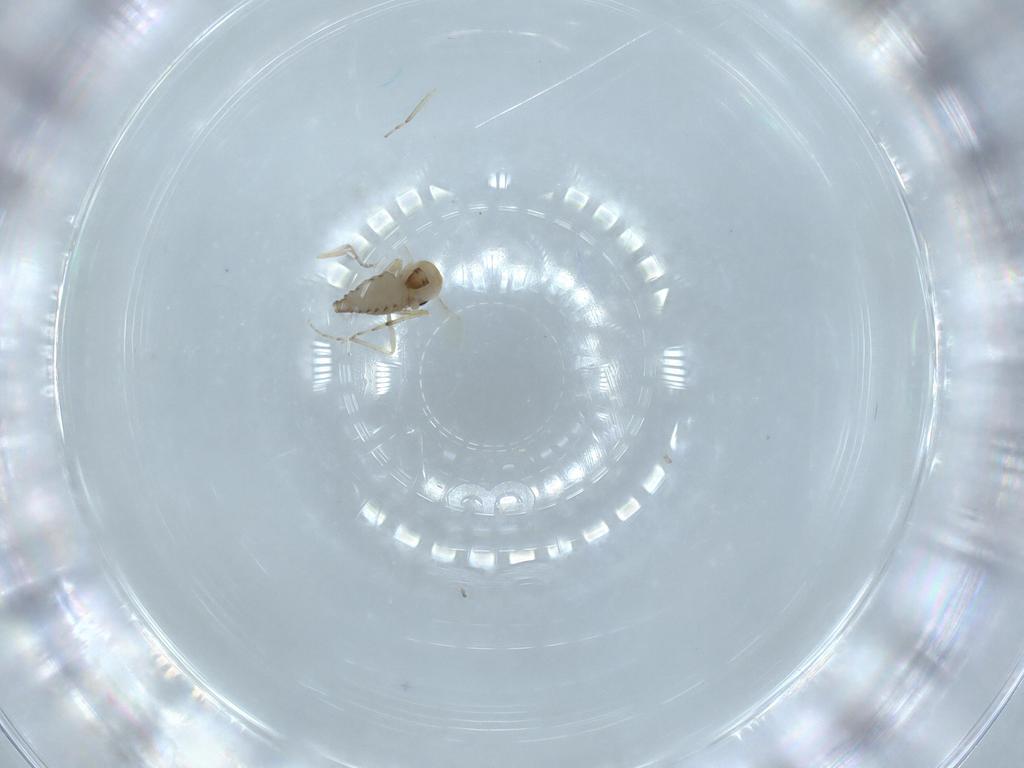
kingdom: Animalia
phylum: Arthropoda
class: Insecta
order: Diptera
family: Ceratopogonidae
